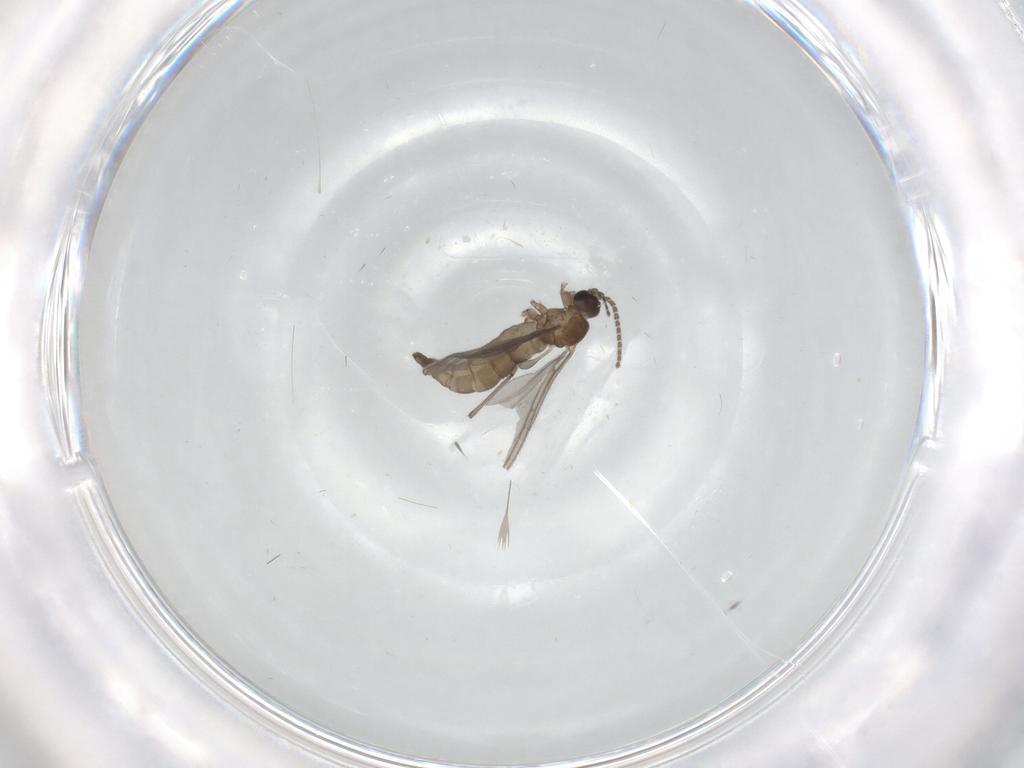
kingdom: Animalia
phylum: Arthropoda
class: Insecta
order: Diptera
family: Sciaridae
